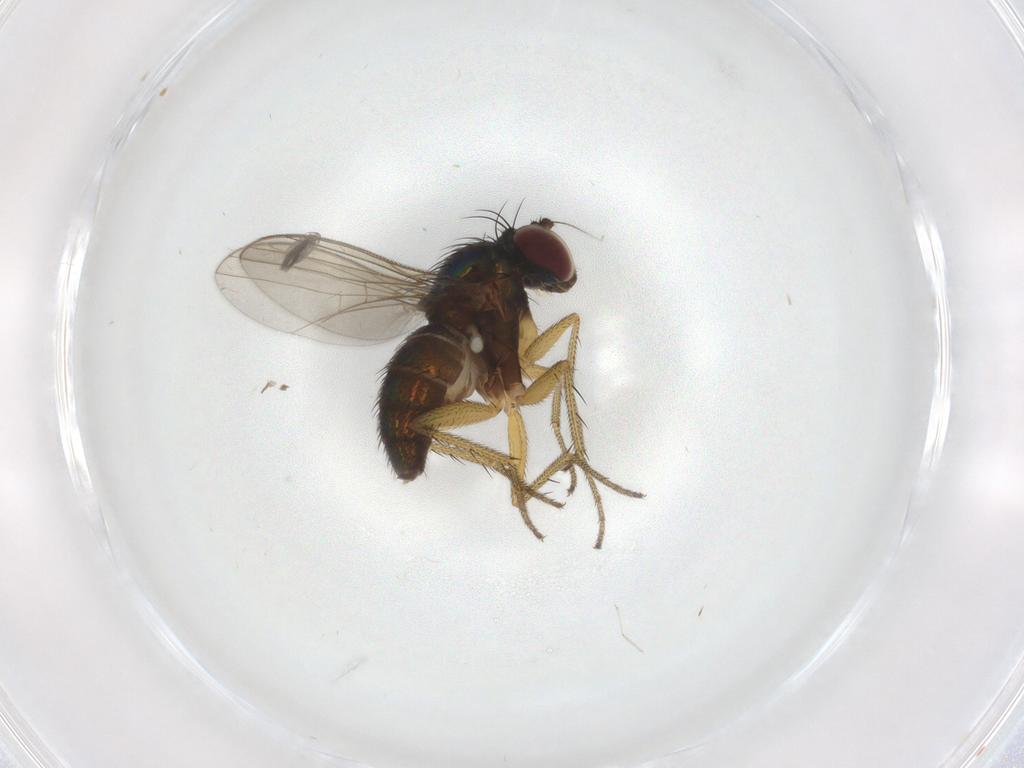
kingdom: Animalia
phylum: Arthropoda
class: Insecta
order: Diptera
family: Dolichopodidae
